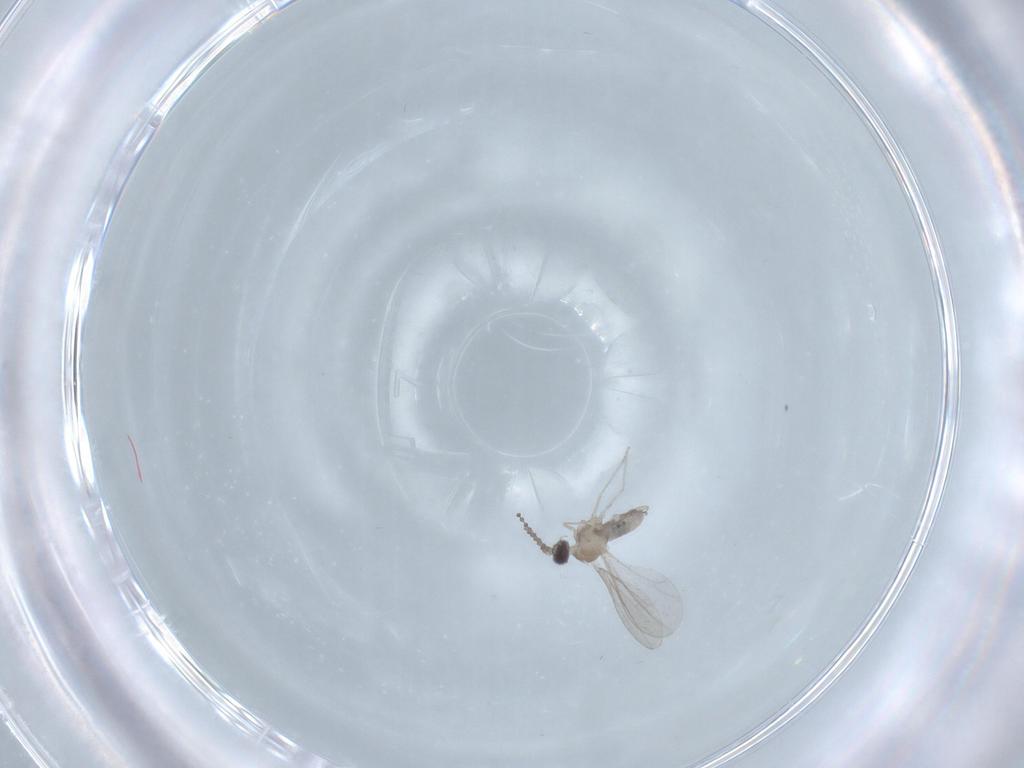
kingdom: Animalia
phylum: Arthropoda
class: Insecta
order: Diptera
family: Cecidomyiidae
